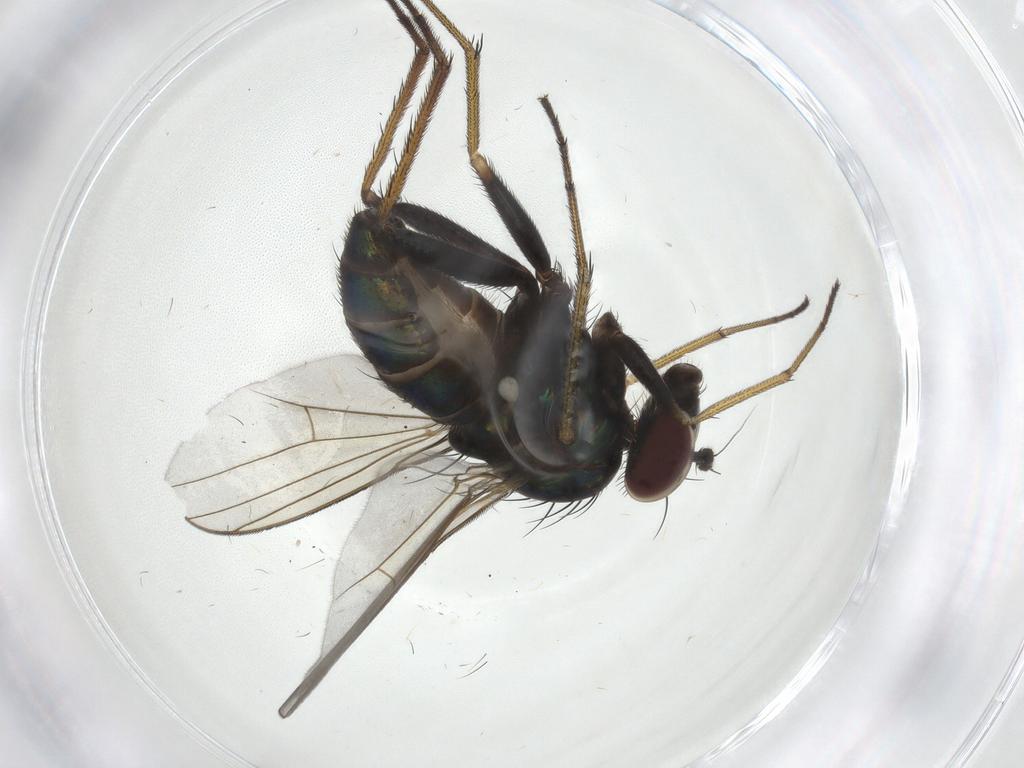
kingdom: Animalia
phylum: Arthropoda
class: Insecta
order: Diptera
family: Dolichopodidae
